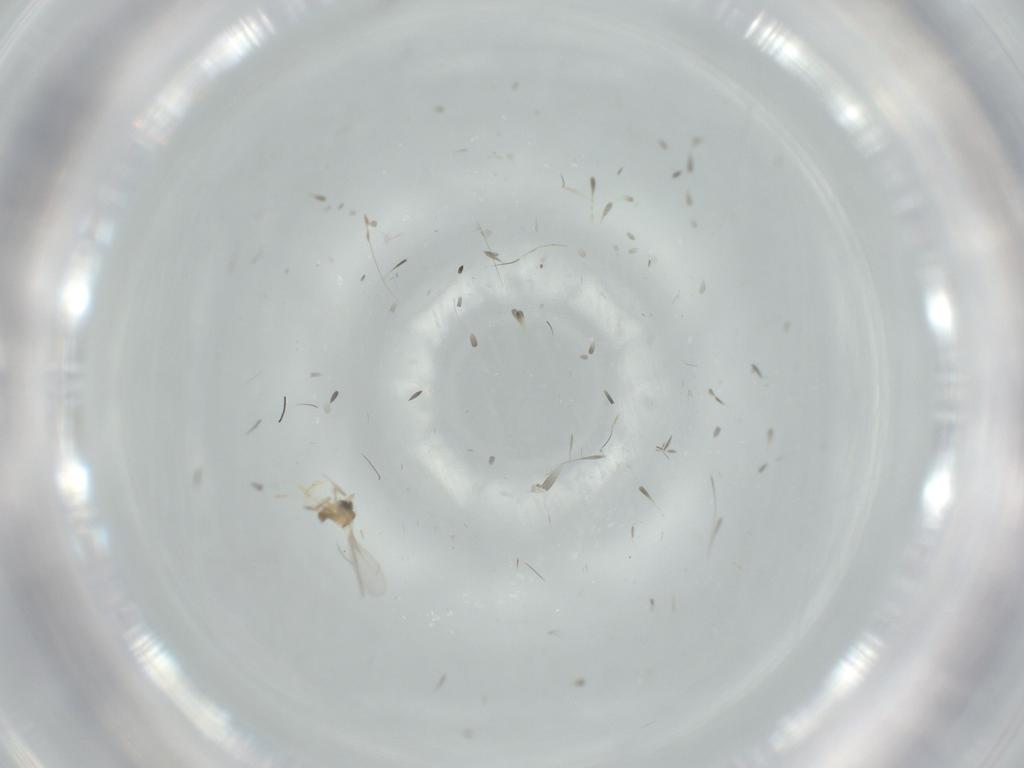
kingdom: Animalia
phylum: Arthropoda
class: Insecta
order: Diptera
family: Cecidomyiidae
